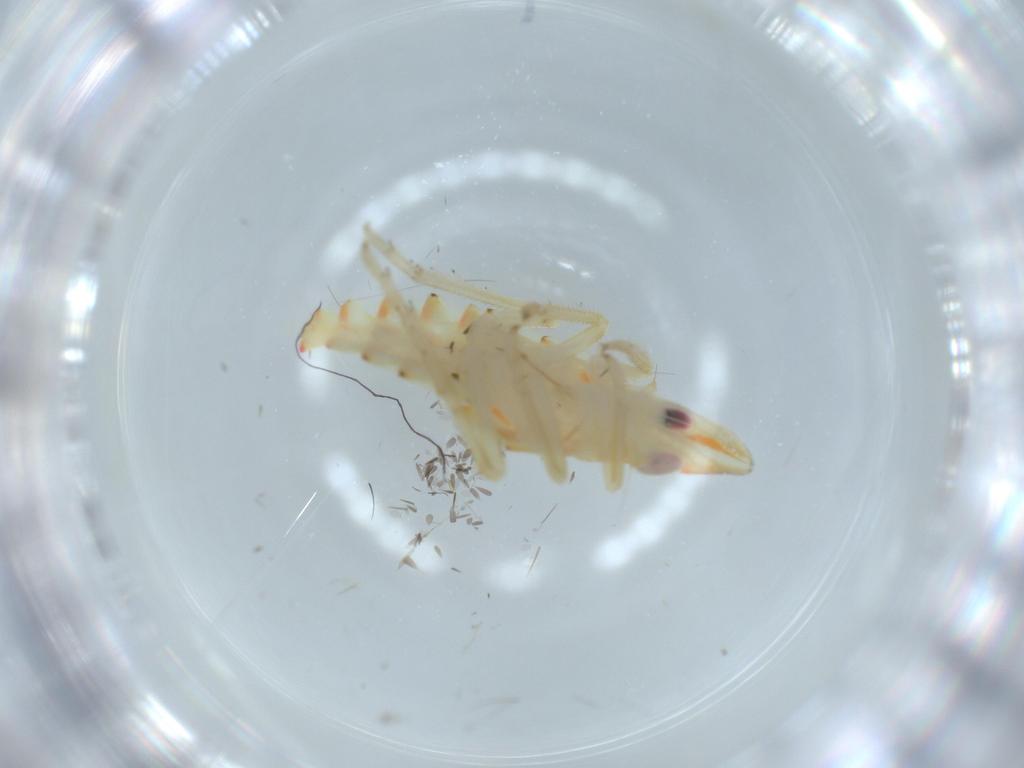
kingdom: Animalia
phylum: Arthropoda
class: Insecta
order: Hemiptera
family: Tropiduchidae
